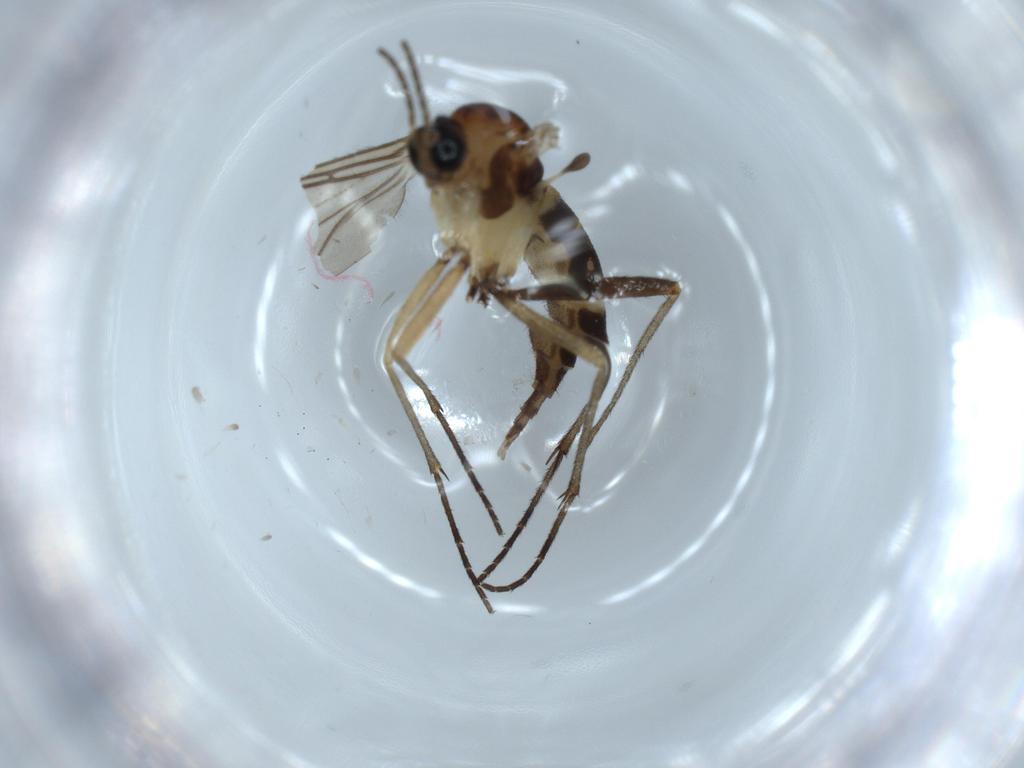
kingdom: Animalia
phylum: Arthropoda
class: Insecta
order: Diptera
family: Sciaridae
